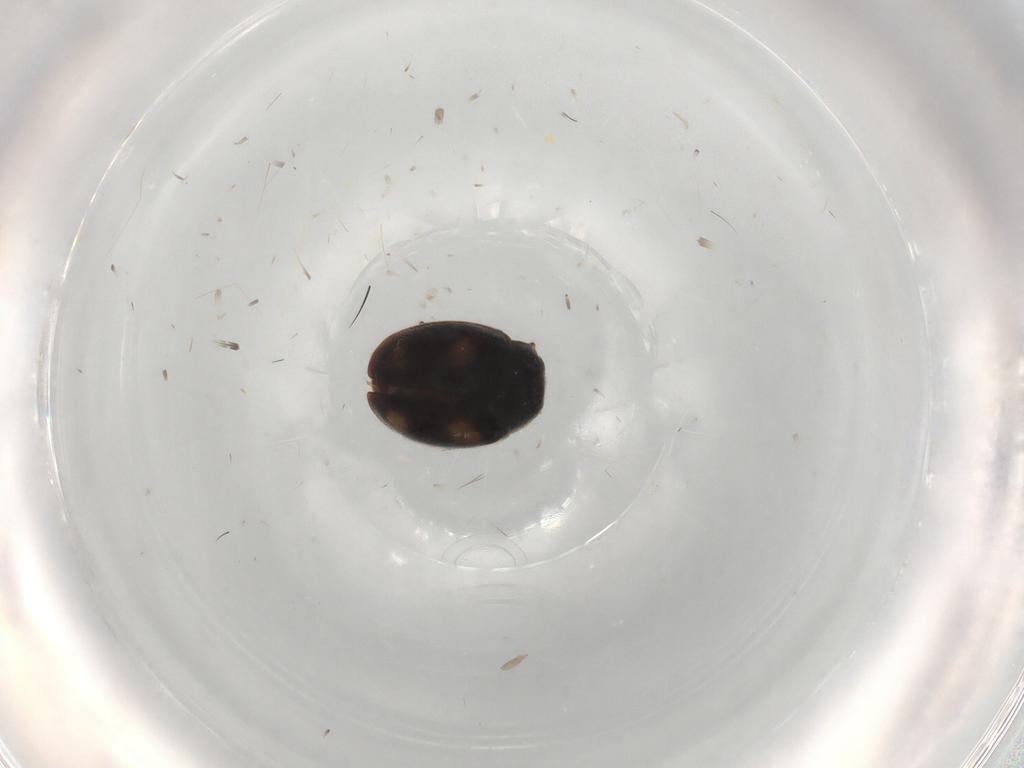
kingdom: Animalia
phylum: Arthropoda
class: Insecta
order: Coleoptera
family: Coccinellidae
